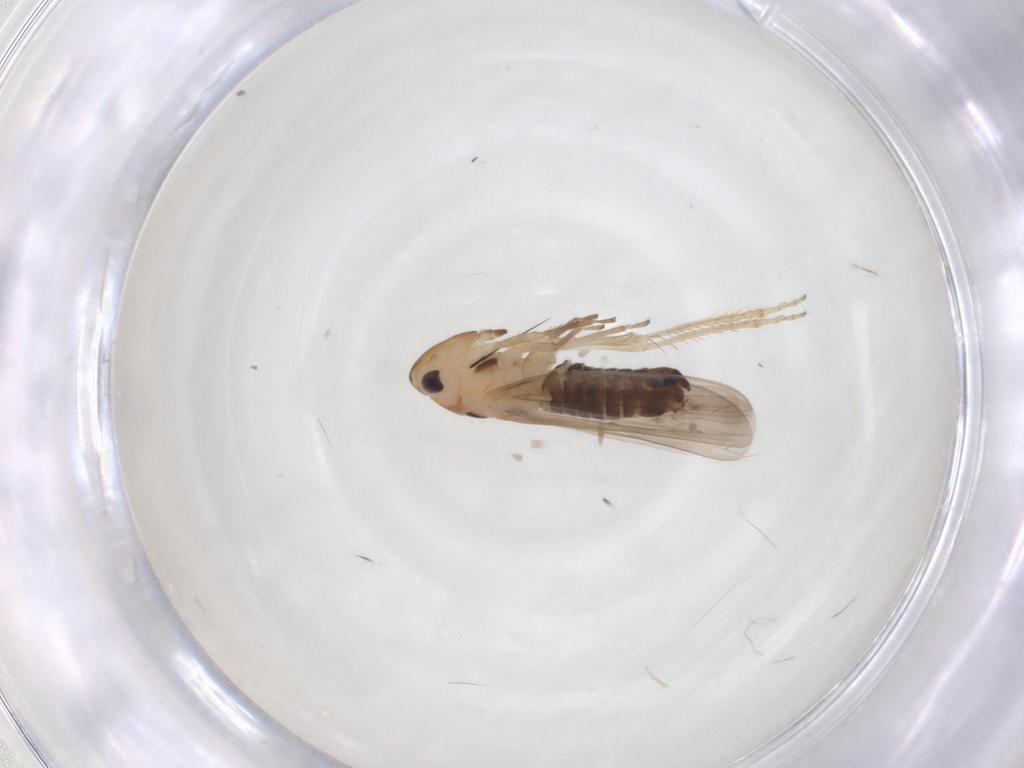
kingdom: Animalia
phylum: Arthropoda
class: Insecta
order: Hemiptera
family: Cicadellidae
